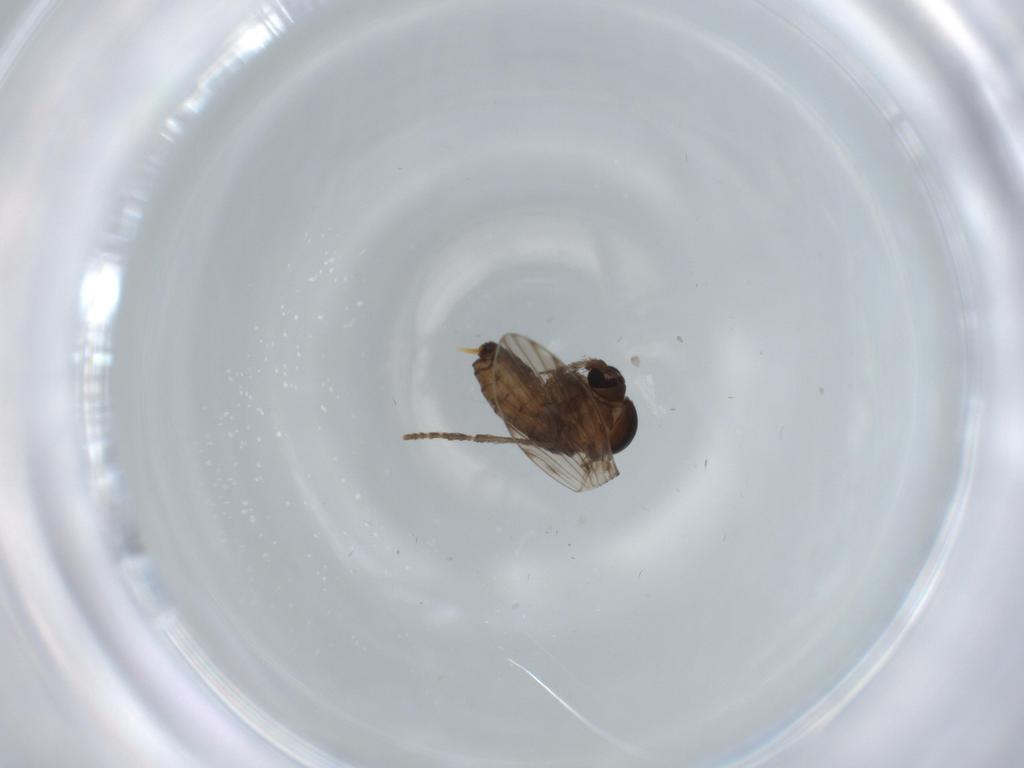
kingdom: Animalia
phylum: Arthropoda
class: Insecta
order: Diptera
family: Psychodidae
